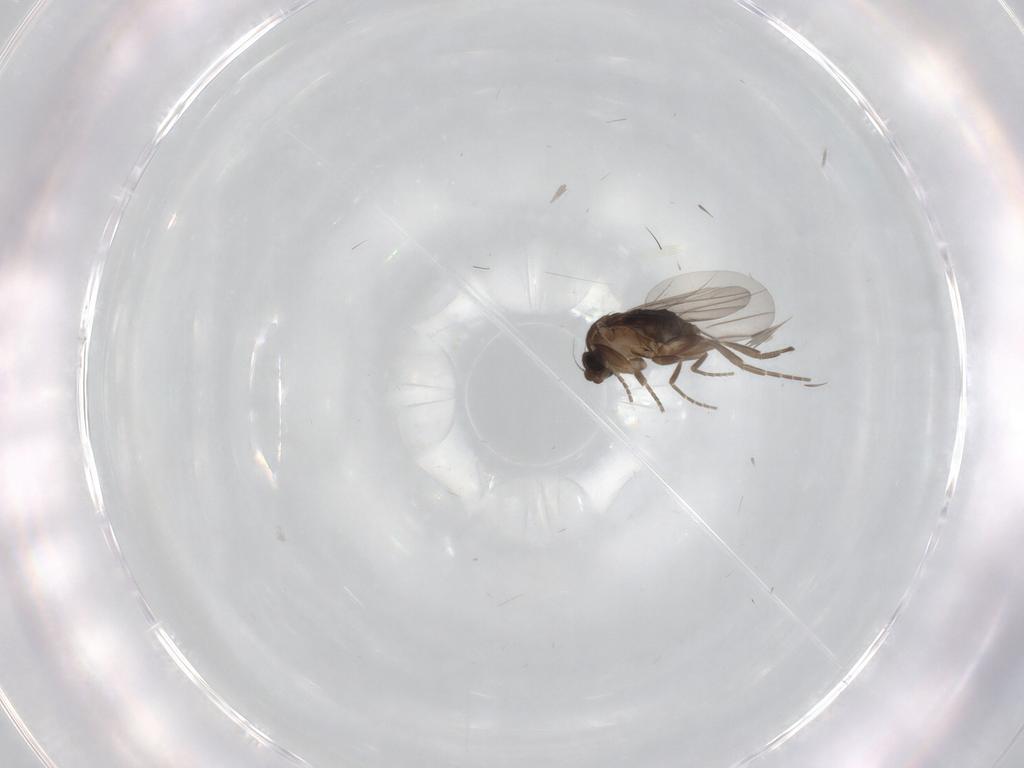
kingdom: Animalia
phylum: Arthropoda
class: Insecta
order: Diptera
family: Phoridae
